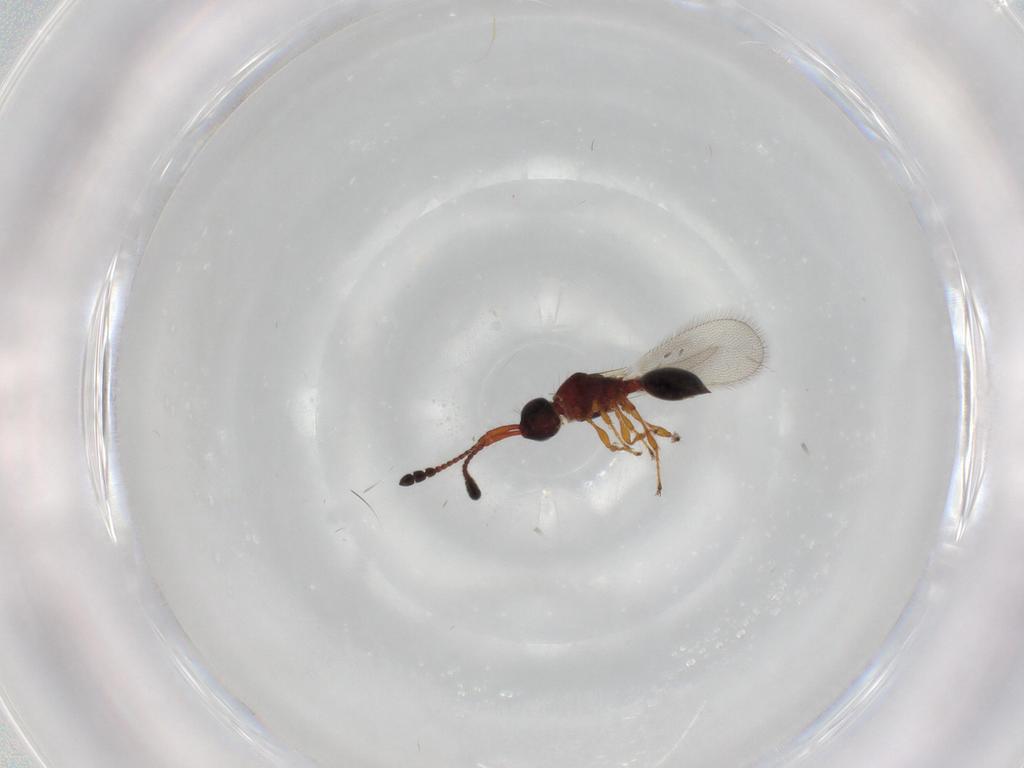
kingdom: Animalia
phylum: Arthropoda
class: Insecta
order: Hymenoptera
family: Diapriidae
